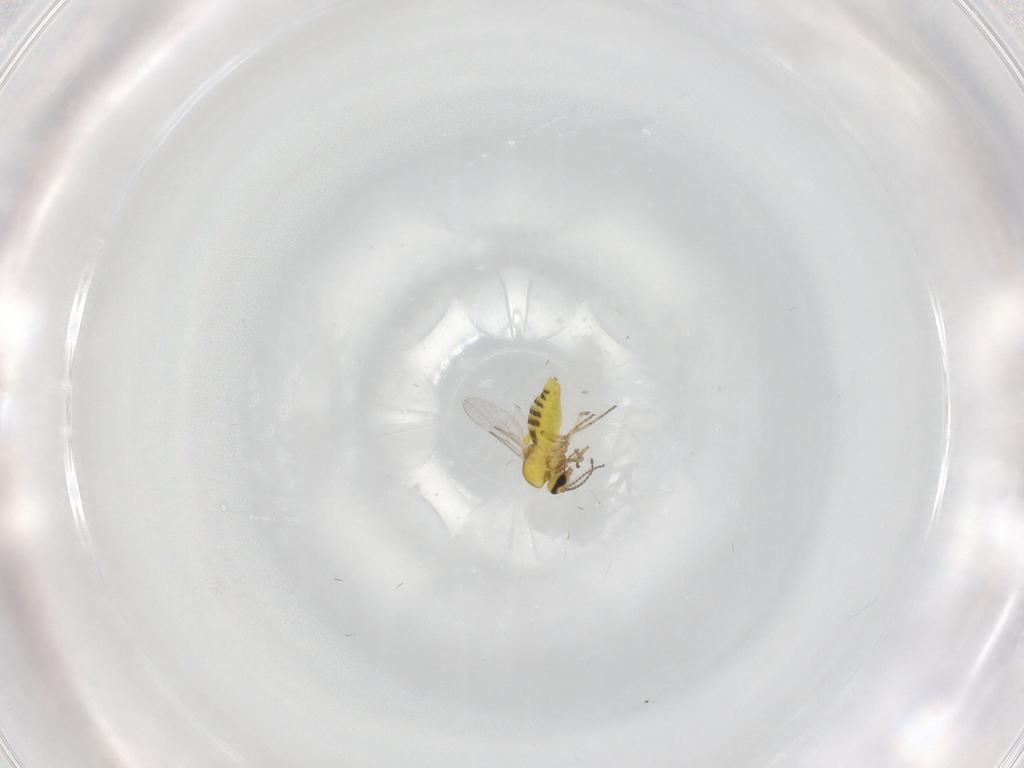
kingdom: Animalia
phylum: Arthropoda
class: Insecta
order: Diptera
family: Ceratopogonidae
